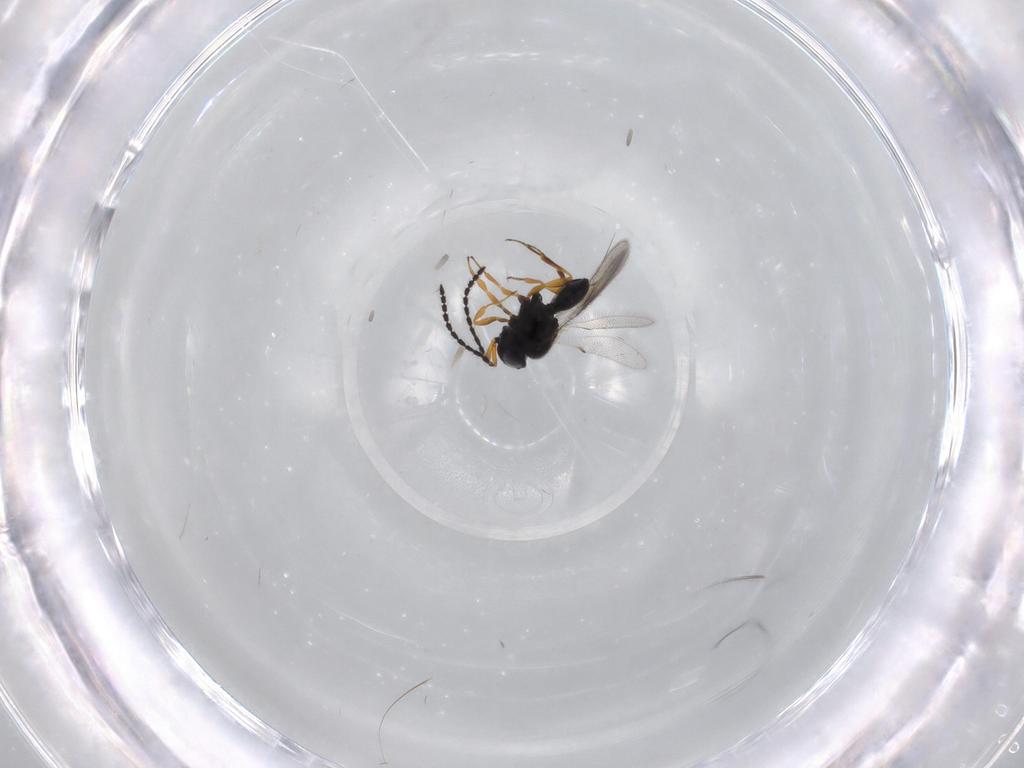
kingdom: Animalia
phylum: Arthropoda
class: Insecta
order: Hymenoptera
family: Scelionidae
